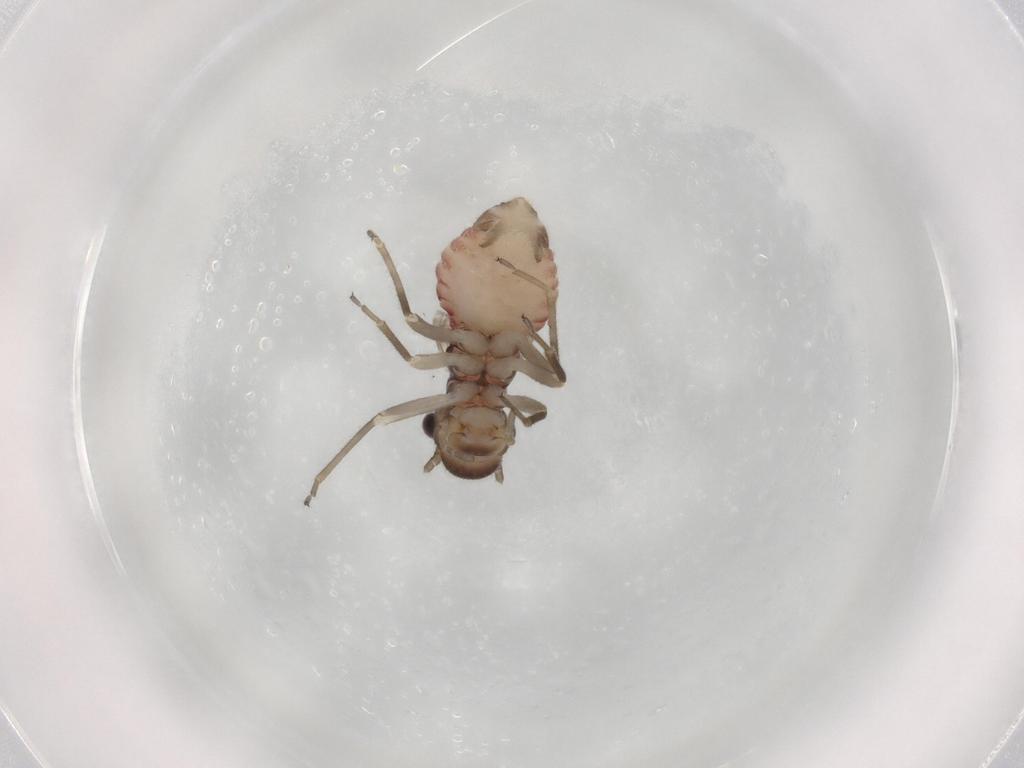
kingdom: Animalia
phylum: Arthropoda
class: Insecta
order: Psocodea
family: Caeciliusidae
